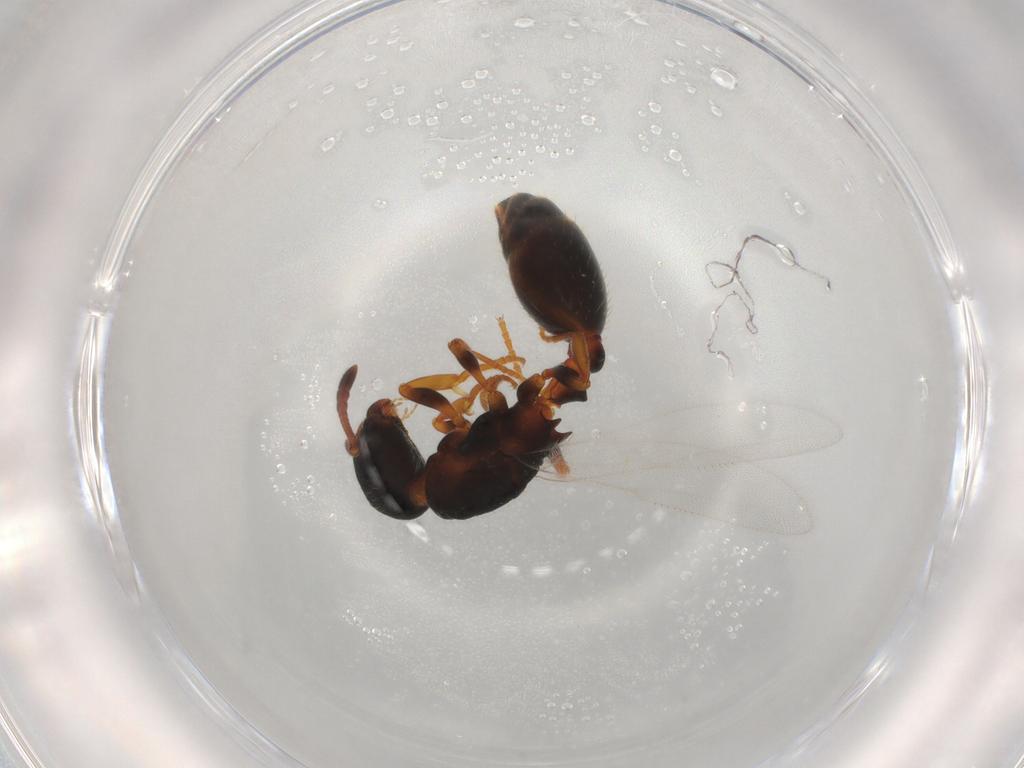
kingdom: Animalia
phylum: Arthropoda
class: Insecta
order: Hymenoptera
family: Formicidae
